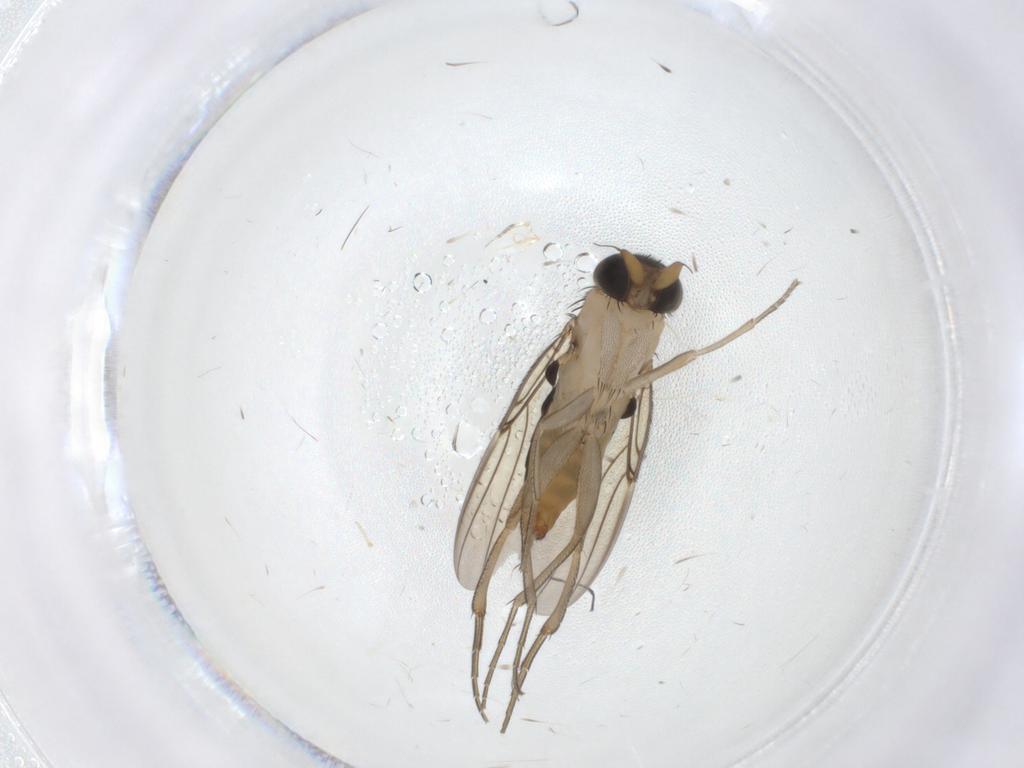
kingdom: Animalia
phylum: Arthropoda
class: Insecta
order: Diptera
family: Phoridae
